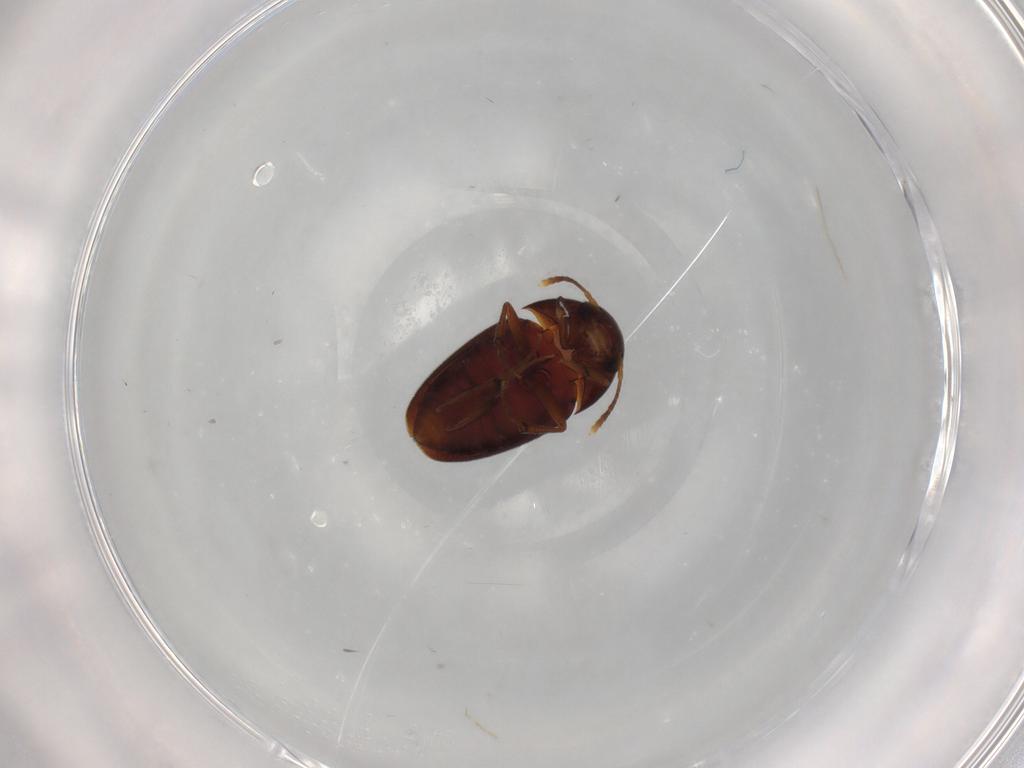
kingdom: Animalia
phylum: Arthropoda
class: Insecta
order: Coleoptera
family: Leiodidae
